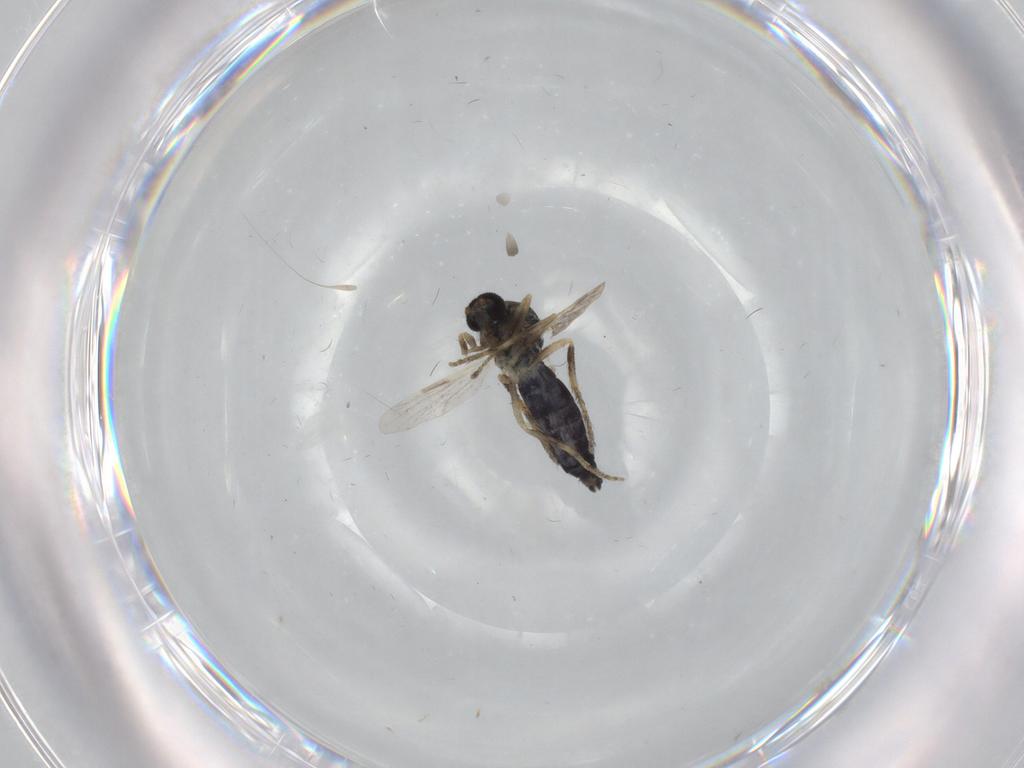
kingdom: Animalia
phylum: Arthropoda
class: Insecta
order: Diptera
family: Ceratopogonidae
